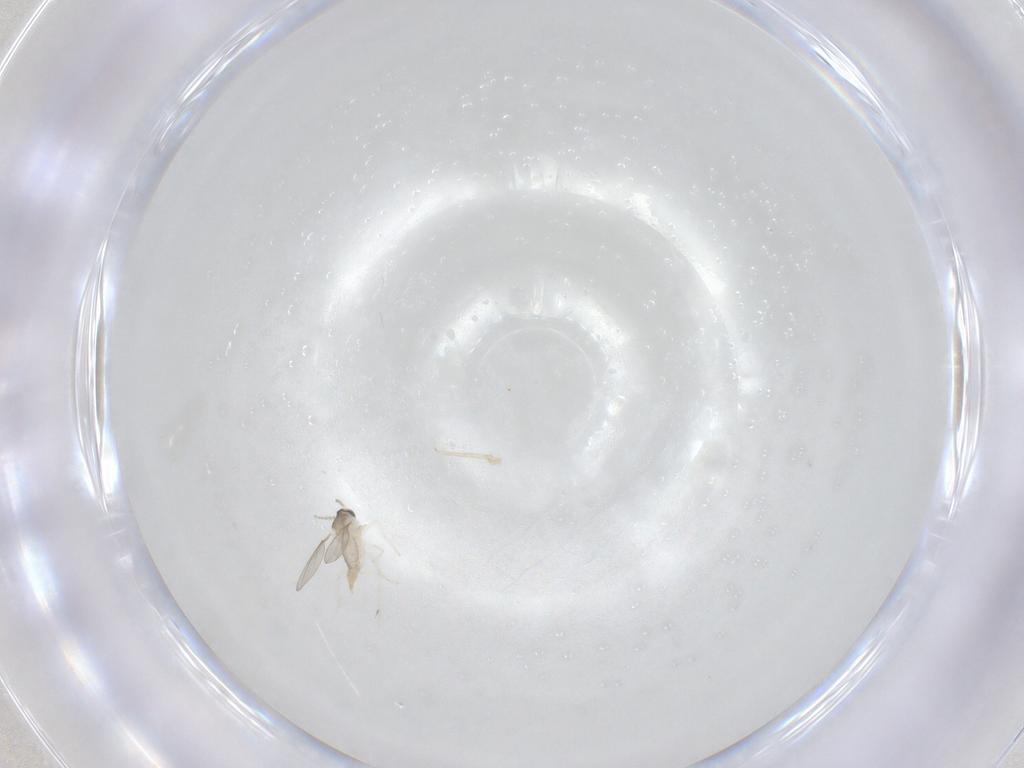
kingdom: Animalia
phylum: Arthropoda
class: Insecta
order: Diptera
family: Cecidomyiidae
